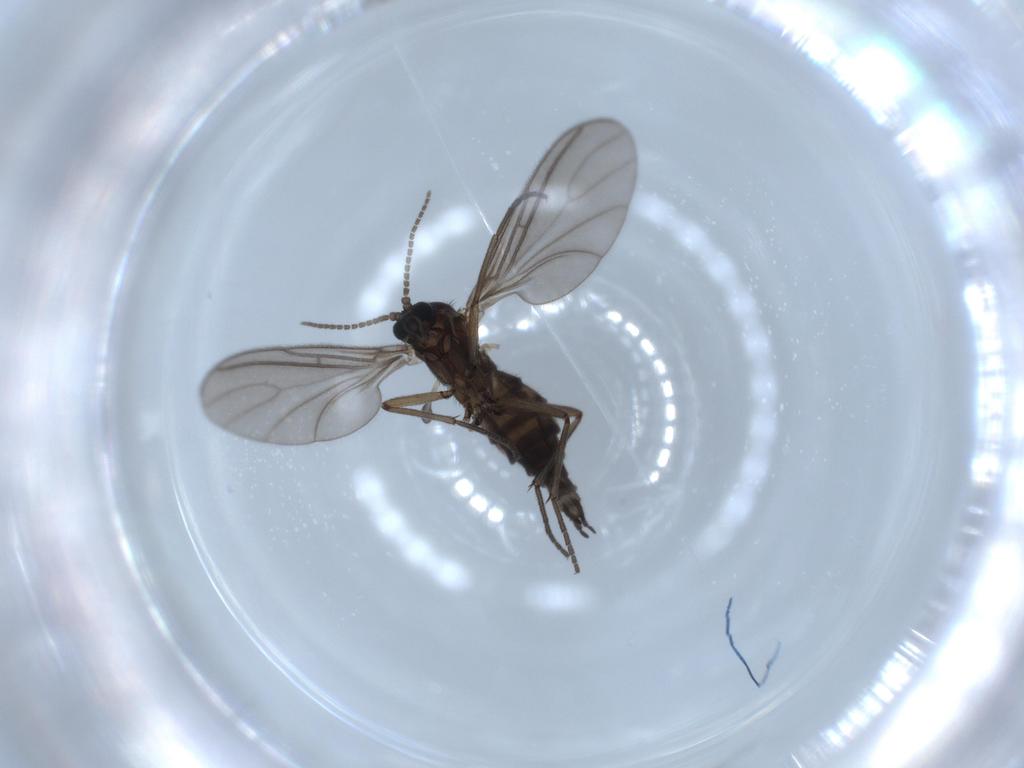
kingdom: Animalia
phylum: Arthropoda
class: Insecta
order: Diptera
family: Sciaridae
